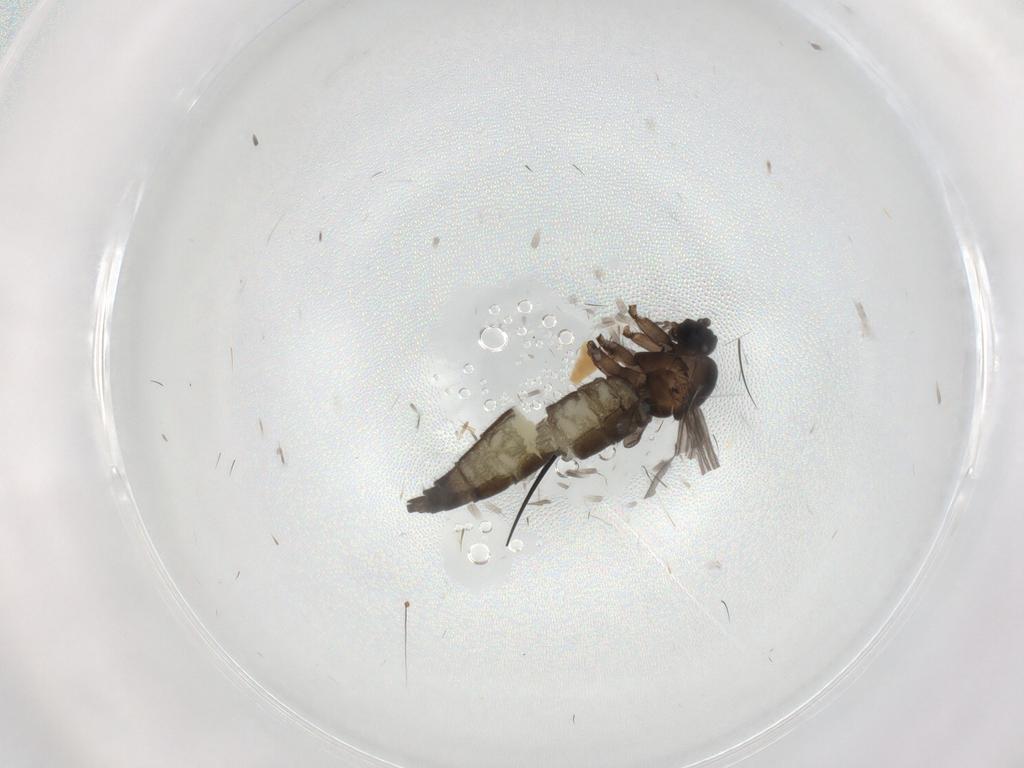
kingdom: Animalia
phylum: Arthropoda
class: Insecta
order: Diptera
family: Sciaridae
